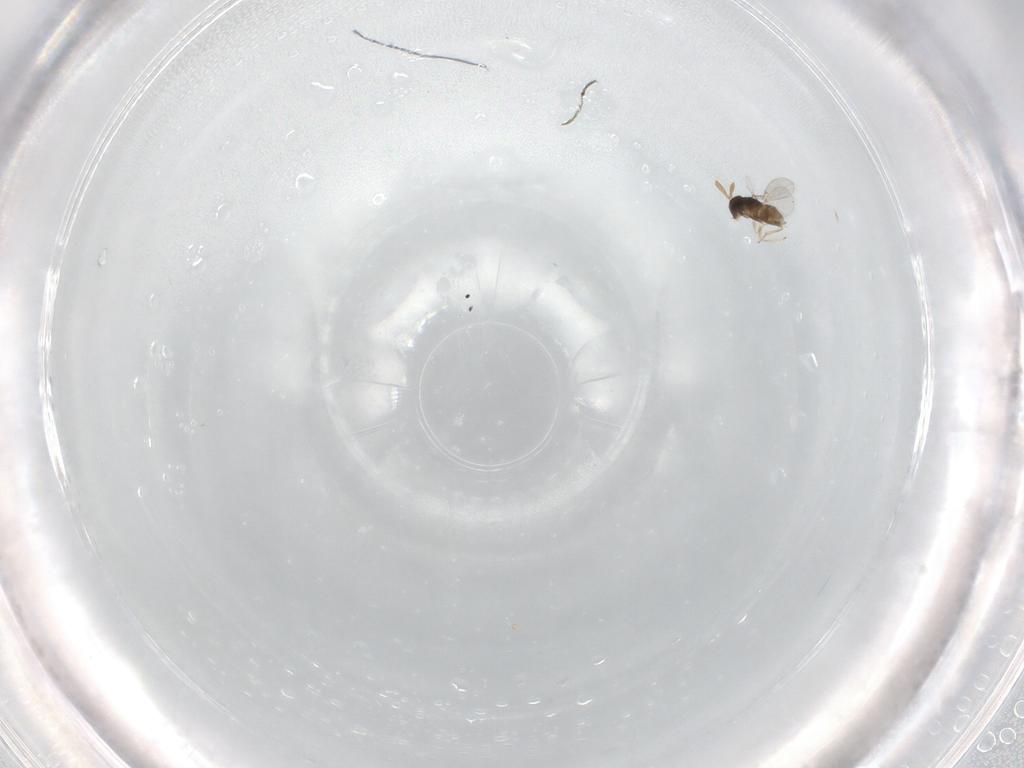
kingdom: Animalia
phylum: Arthropoda
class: Insecta
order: Hymenoptera
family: Encyrtidae
